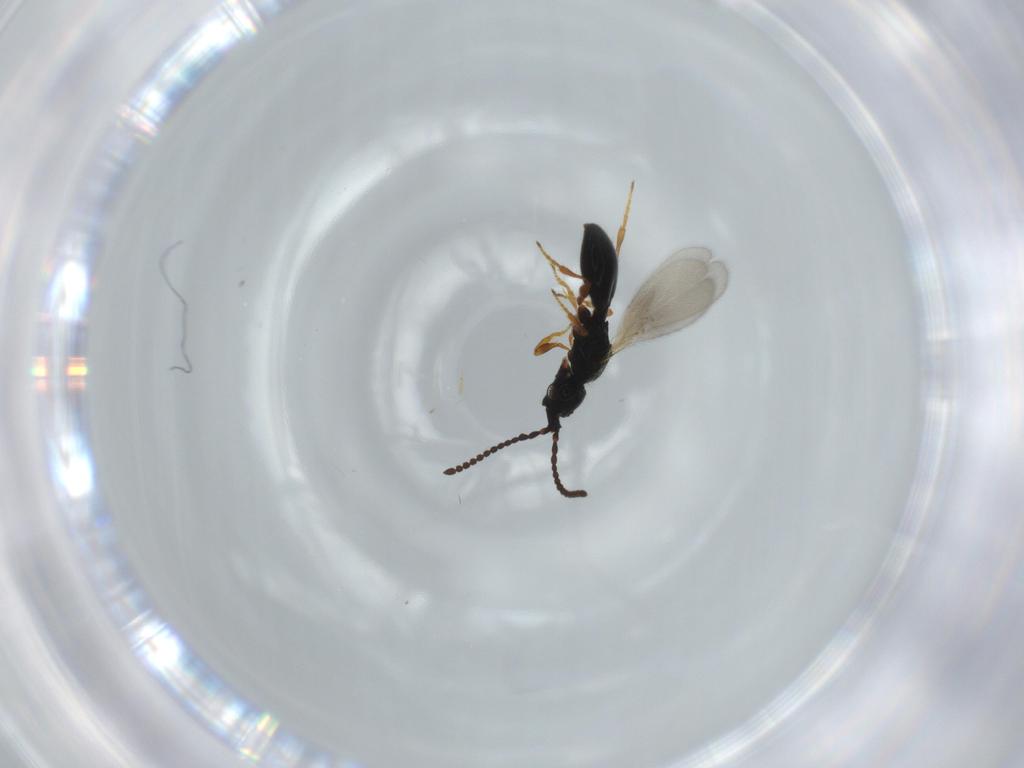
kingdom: Animalia
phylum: Arthropoda
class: Insecta
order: Hymenoptera
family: Diapriidae
